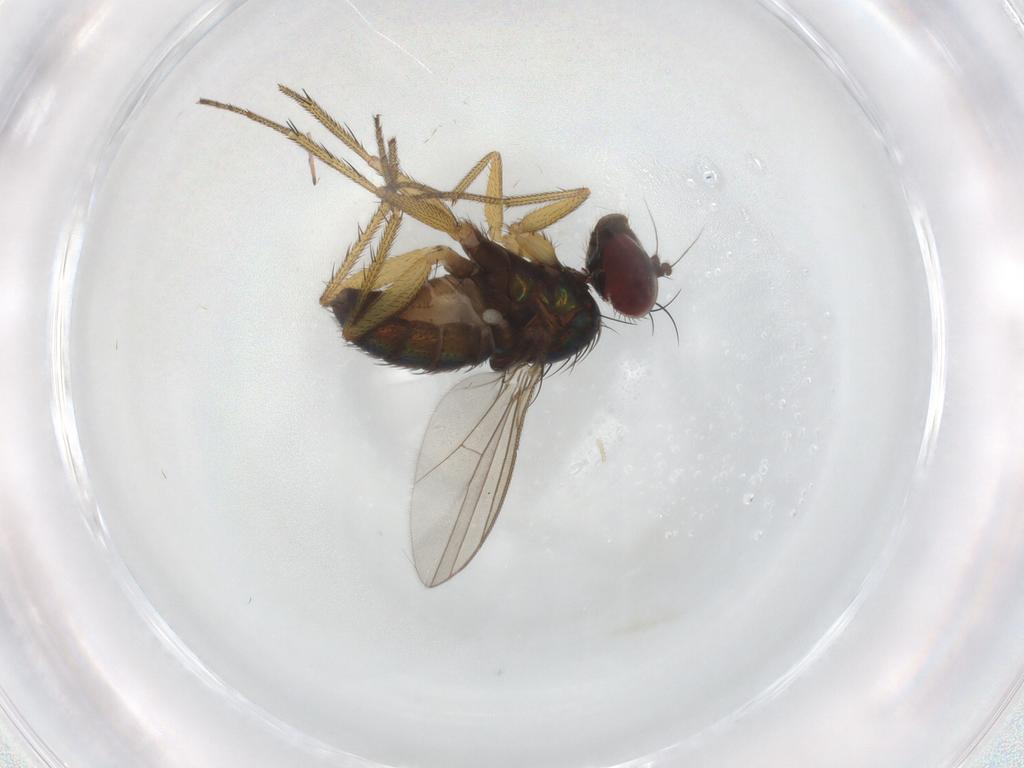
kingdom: Animalia
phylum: Arthropoda
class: Insecta
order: Diptera
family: Dolichopodidae
